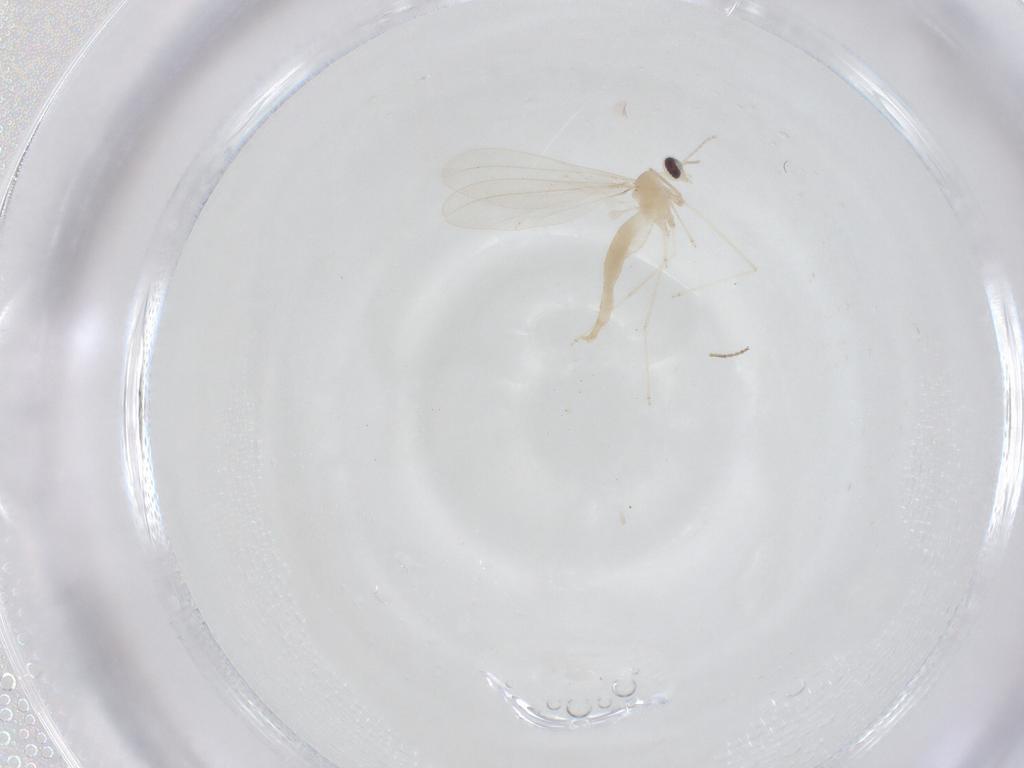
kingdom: Animalia
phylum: Arthropoda
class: Insecta
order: Diptera
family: Cecidomyiidae
